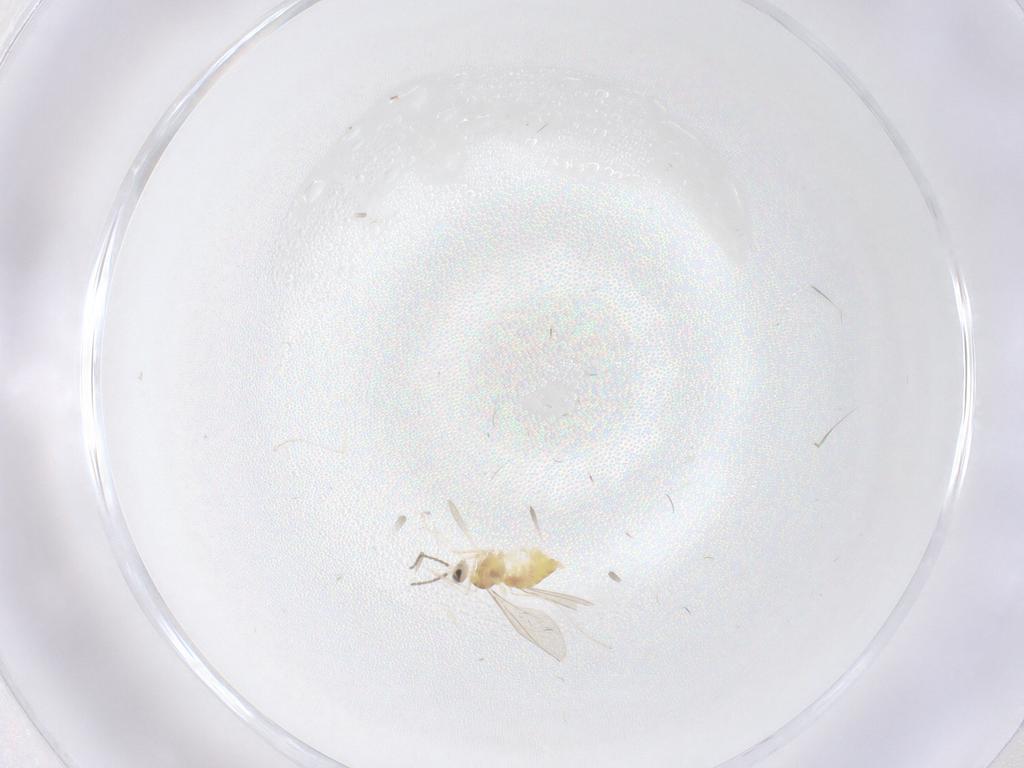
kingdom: Animalia
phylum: Arthropoda
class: Insecta
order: Diptera
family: Cecidomyiidae
